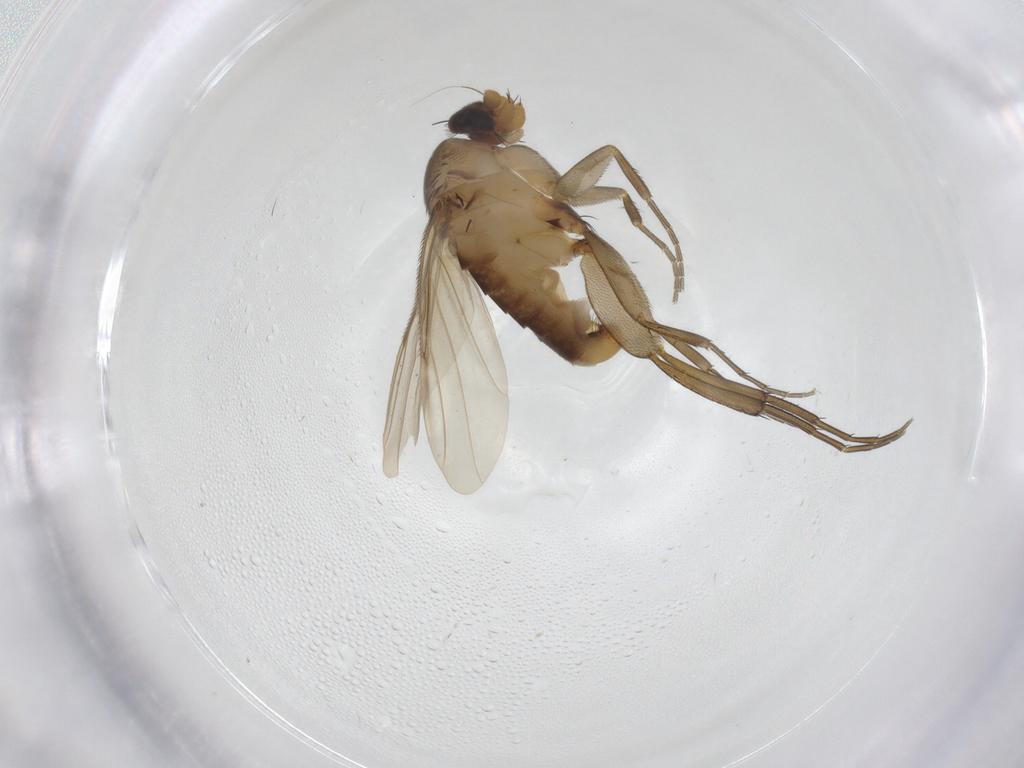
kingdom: Animalia
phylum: Arthropoda
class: Insecta
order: Diptera
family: Phoridae
